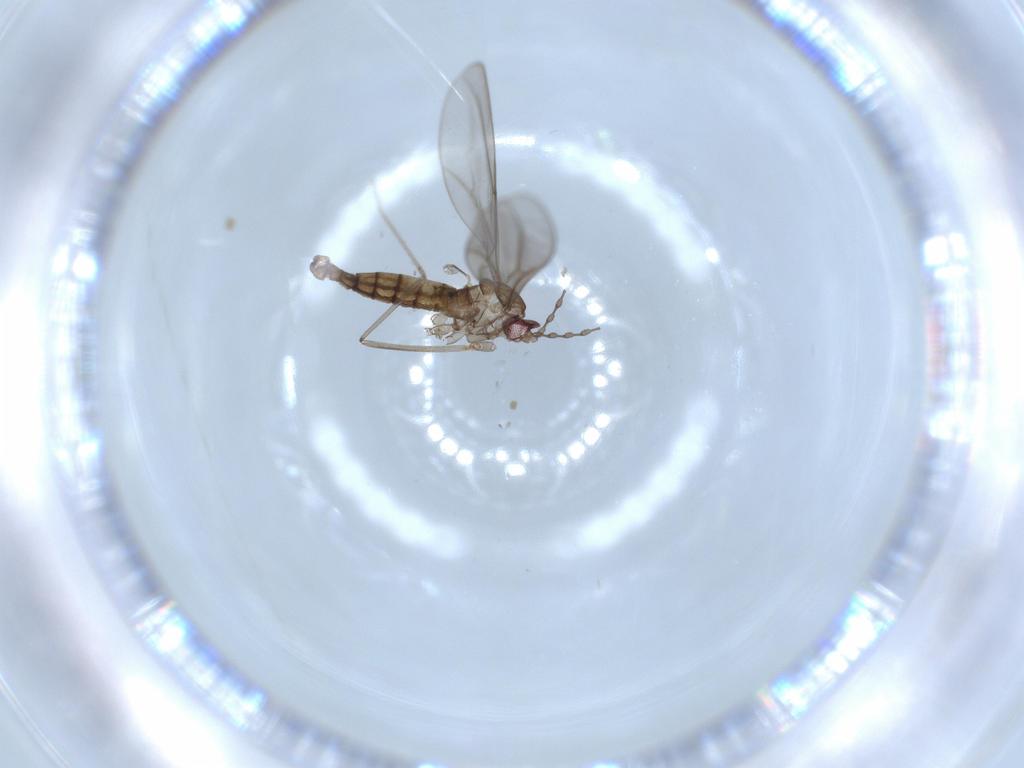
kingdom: Animalia
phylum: Arthropoda
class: Insecta
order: Diptera
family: Cecidomyiidae
